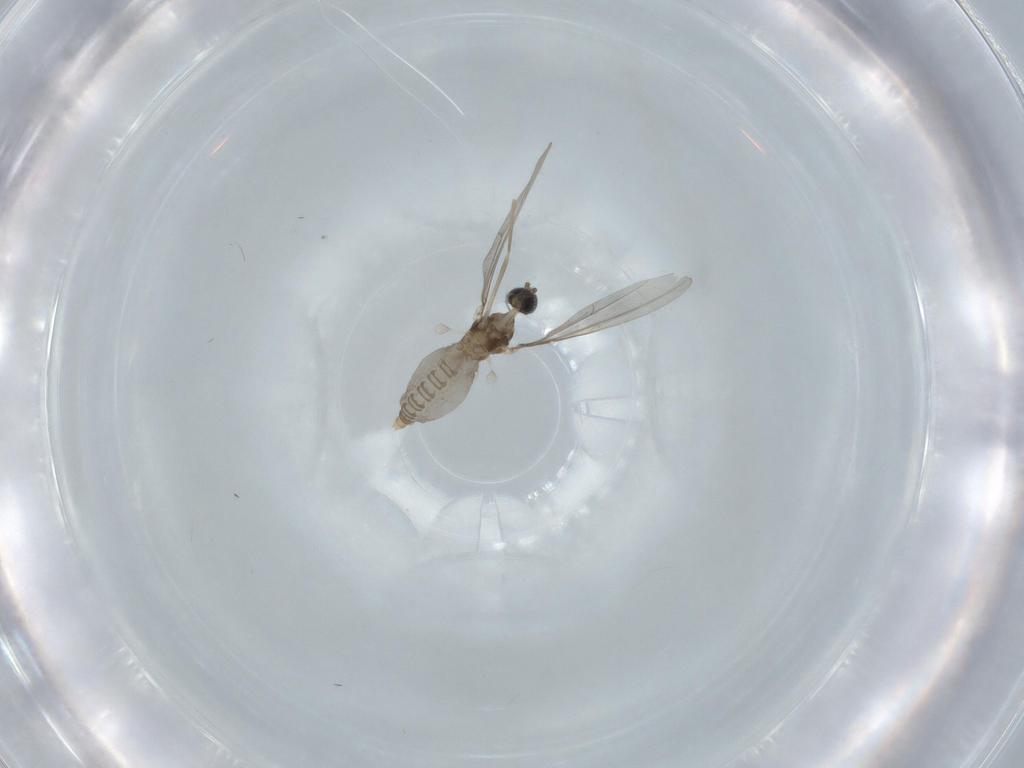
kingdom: Animalia
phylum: Arthropoda
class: Insecta
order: Diptera
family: Cecidomyiidae
